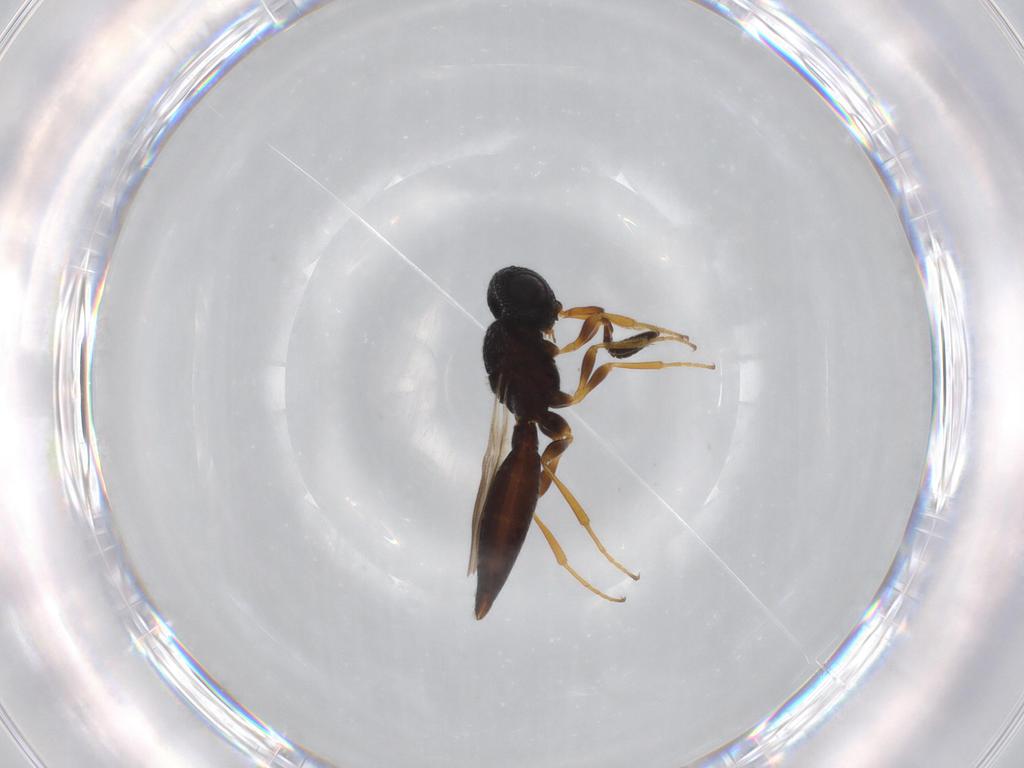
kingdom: Animalia
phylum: Arthropoda
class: Insecta
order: Hymenoptera
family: Scelionidae
